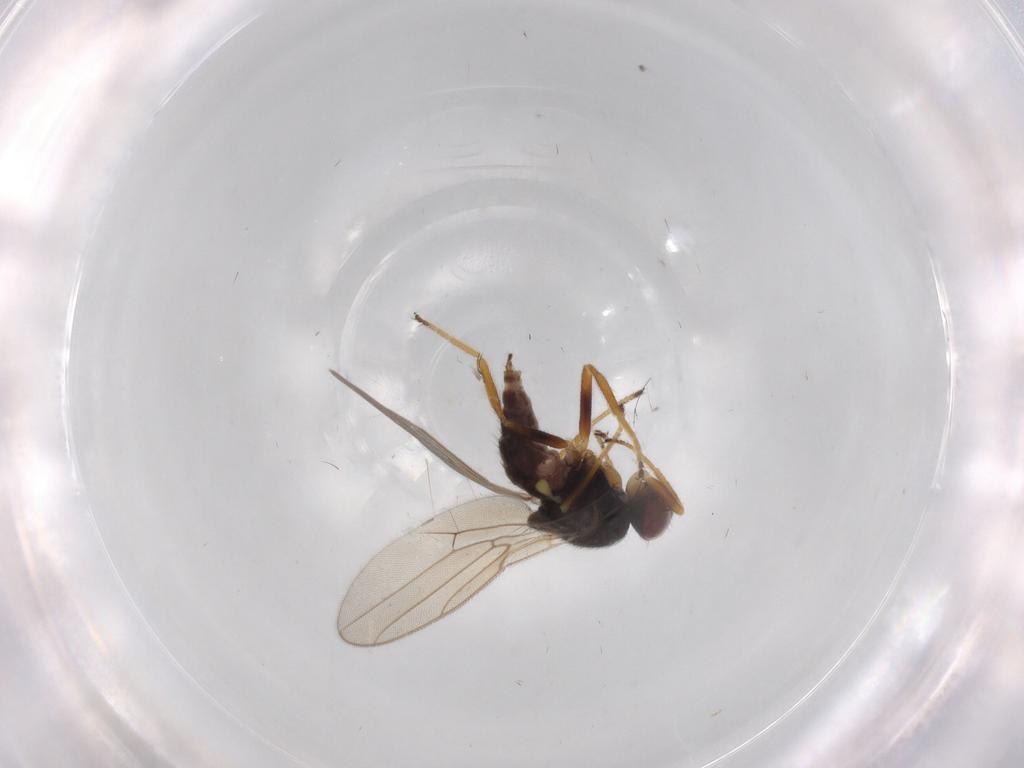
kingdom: Animalia
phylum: Arthropoda
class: Insecta
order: Diptera
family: Chloropidae
